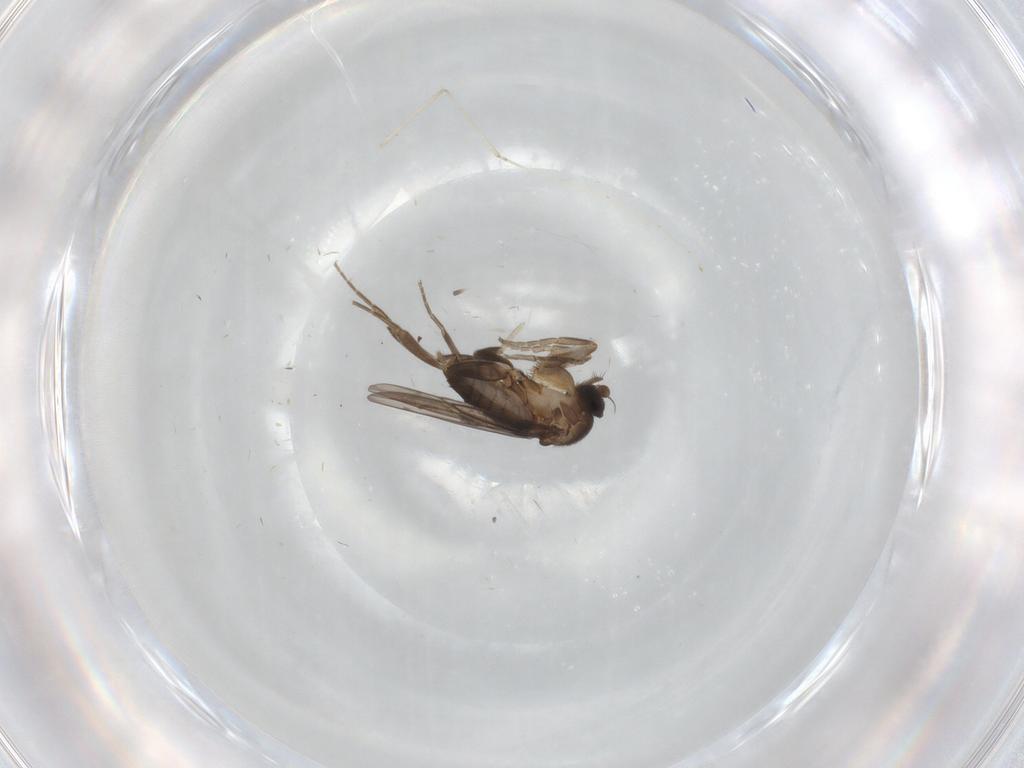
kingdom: Animalia
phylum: Arthropoda
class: Insecta
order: Diptera
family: Phoridae
